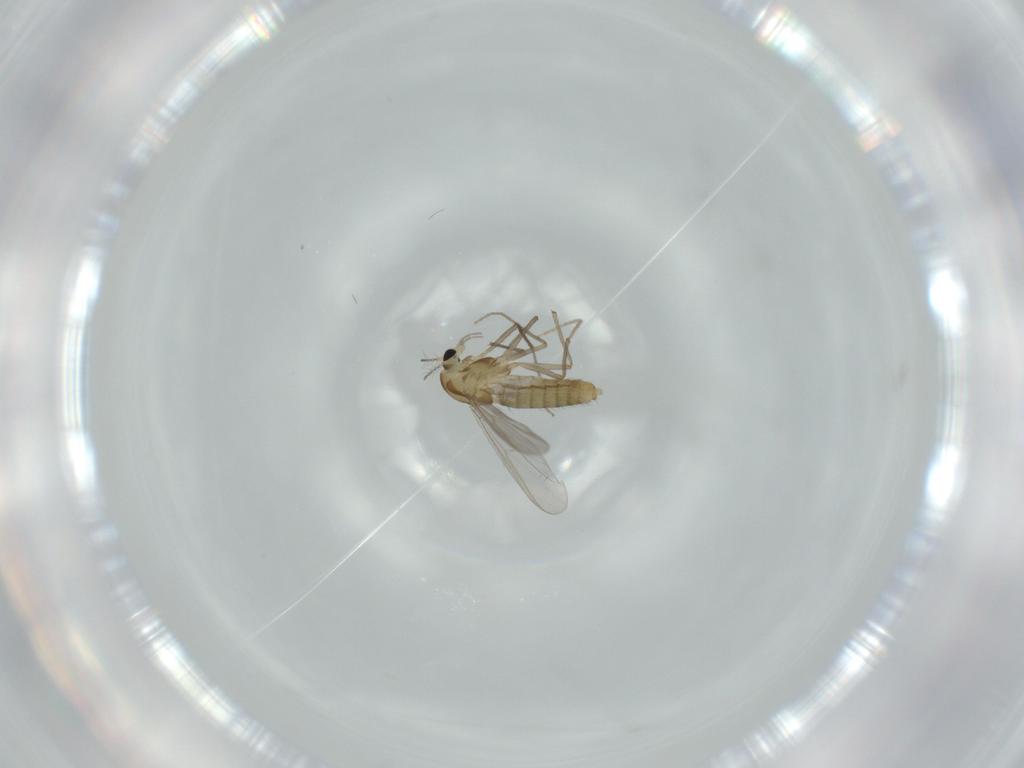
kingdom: Animalia
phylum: Arthropoda
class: Insecta
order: Diptera
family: Chironomidae
